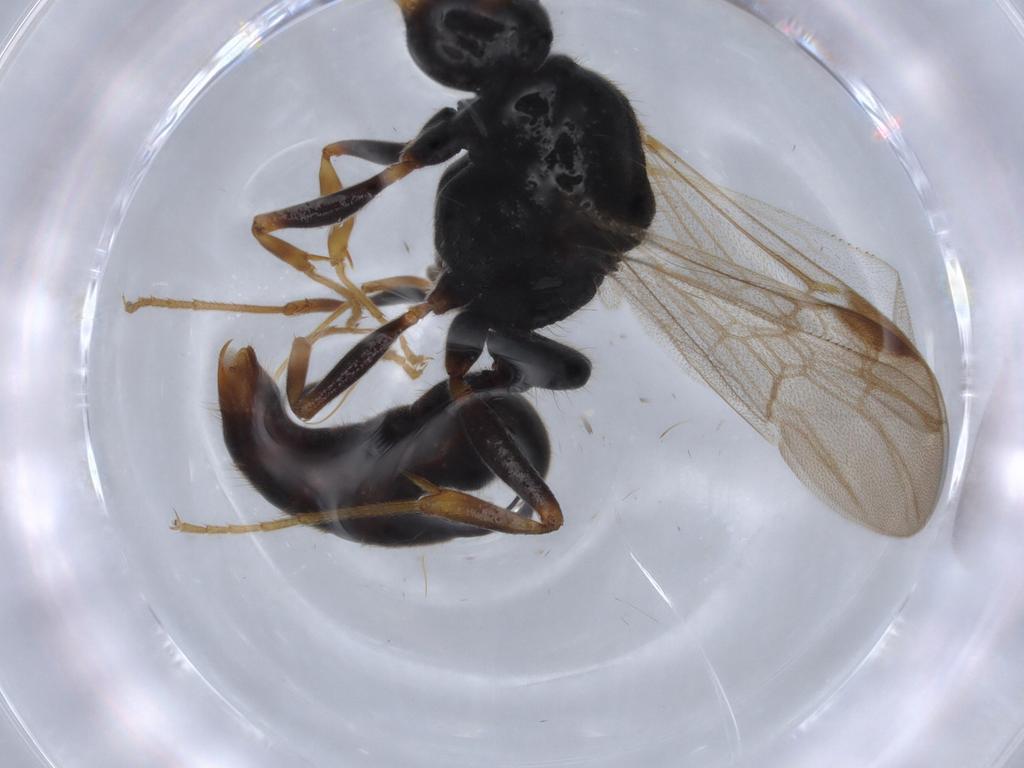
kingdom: Animalia
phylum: Arthropoda
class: Insecta
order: Hymenoptera
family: Formicidae
